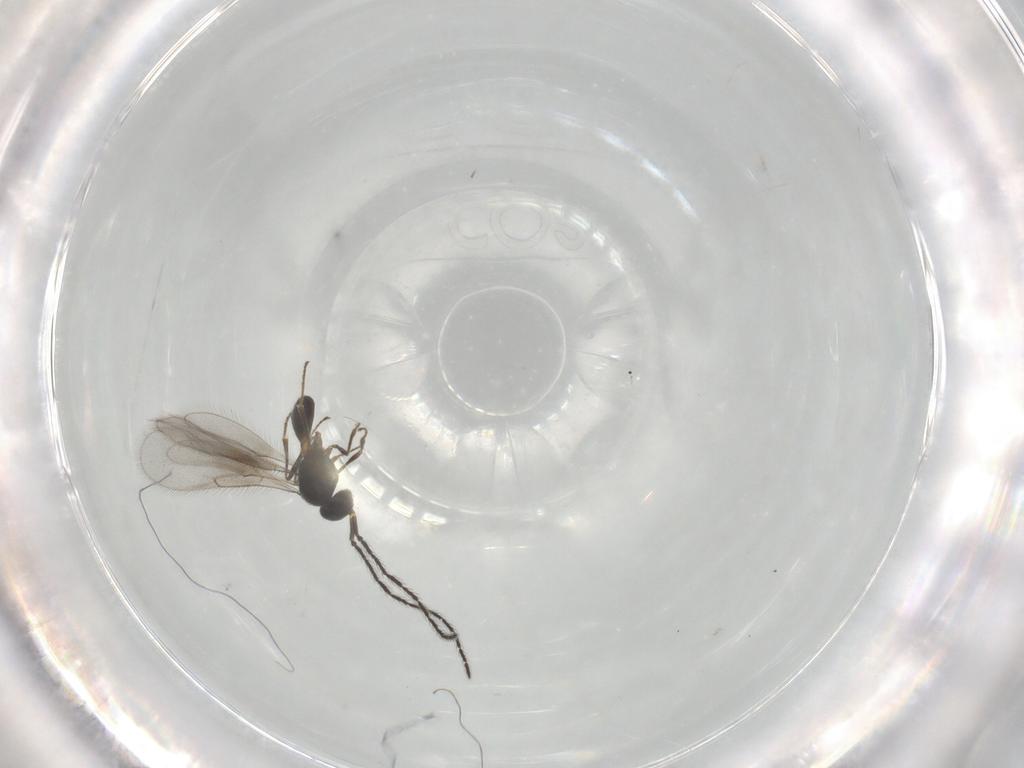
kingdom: Animalia
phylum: Arthropoda
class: Insecta
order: Hymenoptera
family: Scelionidae
